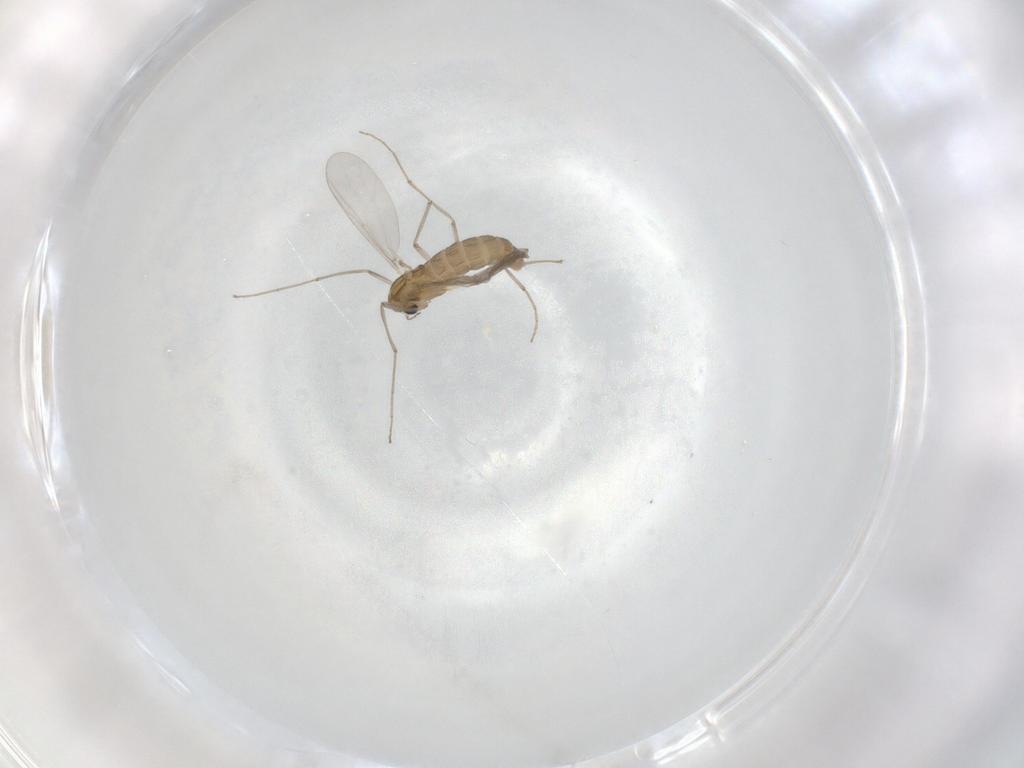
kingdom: Animalia
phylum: Arthropoda
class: Insecta
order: Diptera
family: Chironomidae
